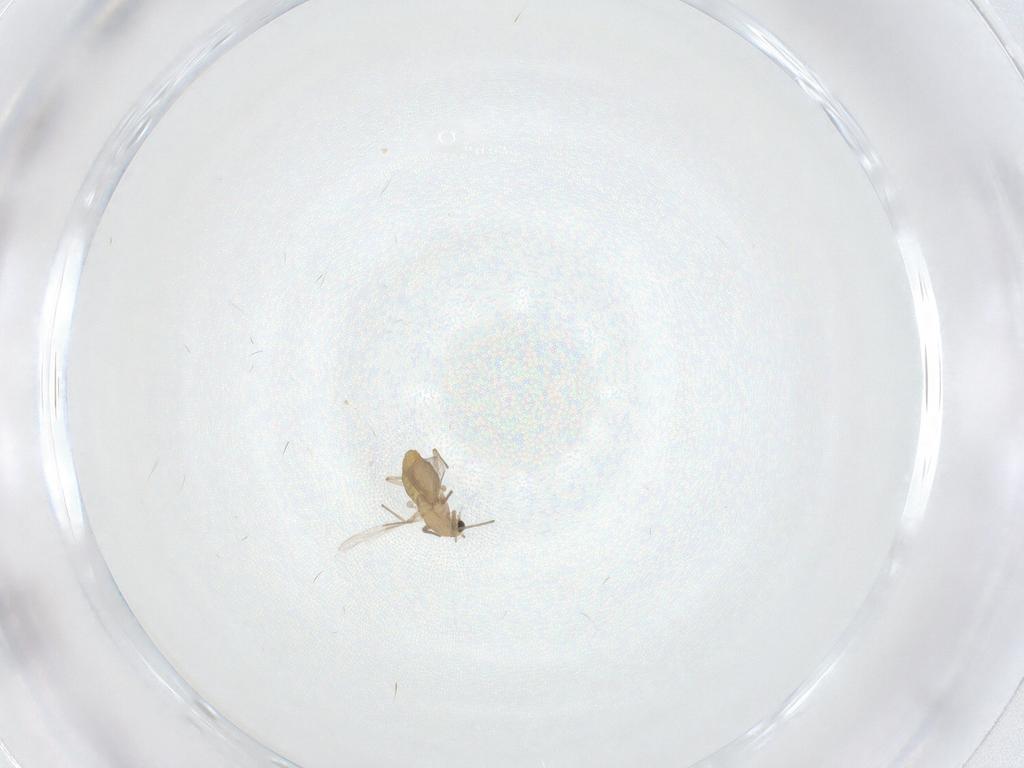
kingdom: Animalia
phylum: Arthropoda
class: Insecta
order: Diptera
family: Chironomidae
